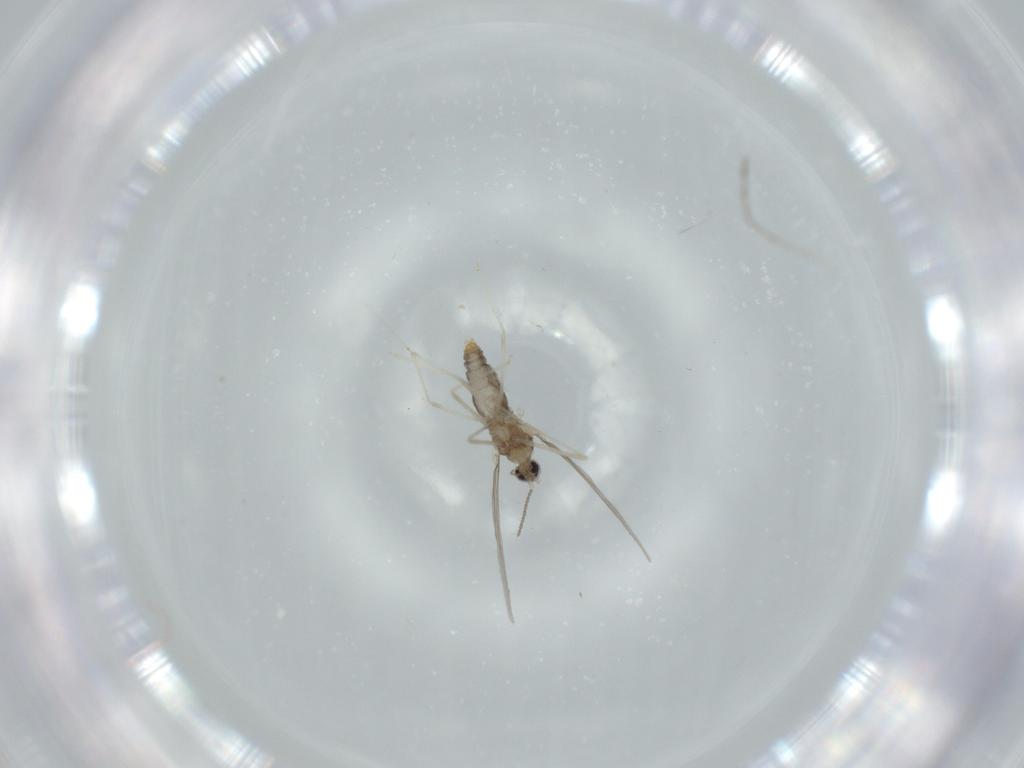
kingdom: Animalia
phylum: Arthropoda
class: Insecta
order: Diptera
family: Cecidomyiidae
